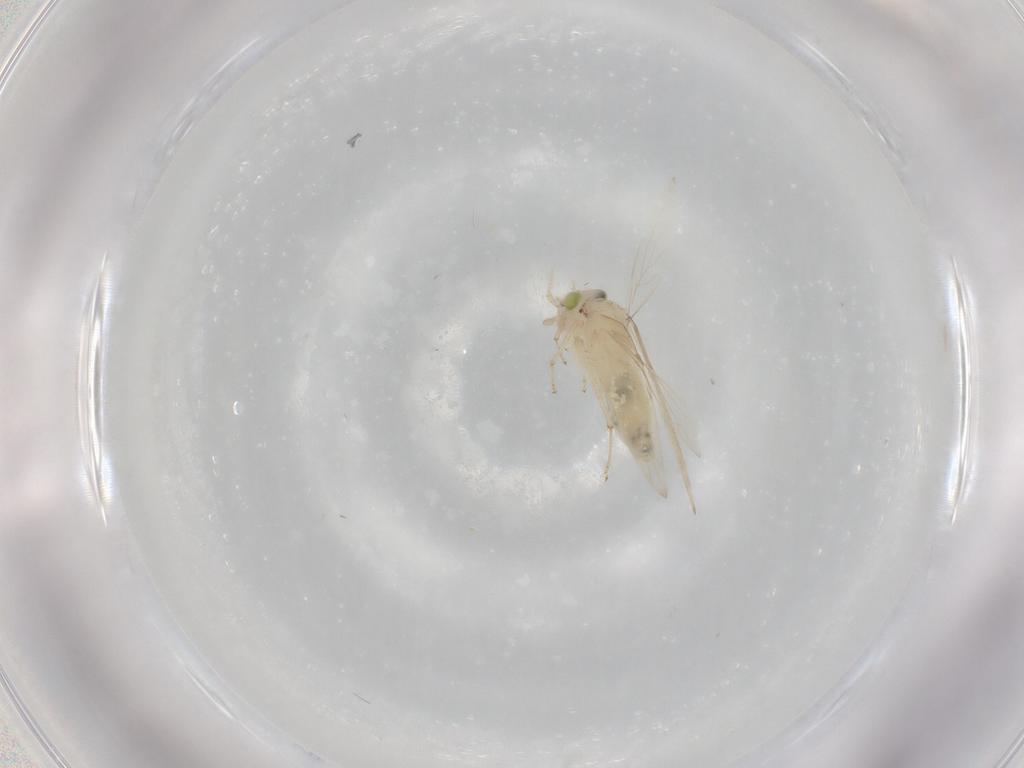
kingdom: Animalia
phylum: Arthropoda
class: Insecta
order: Psocodea
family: Lepidopsocidae
